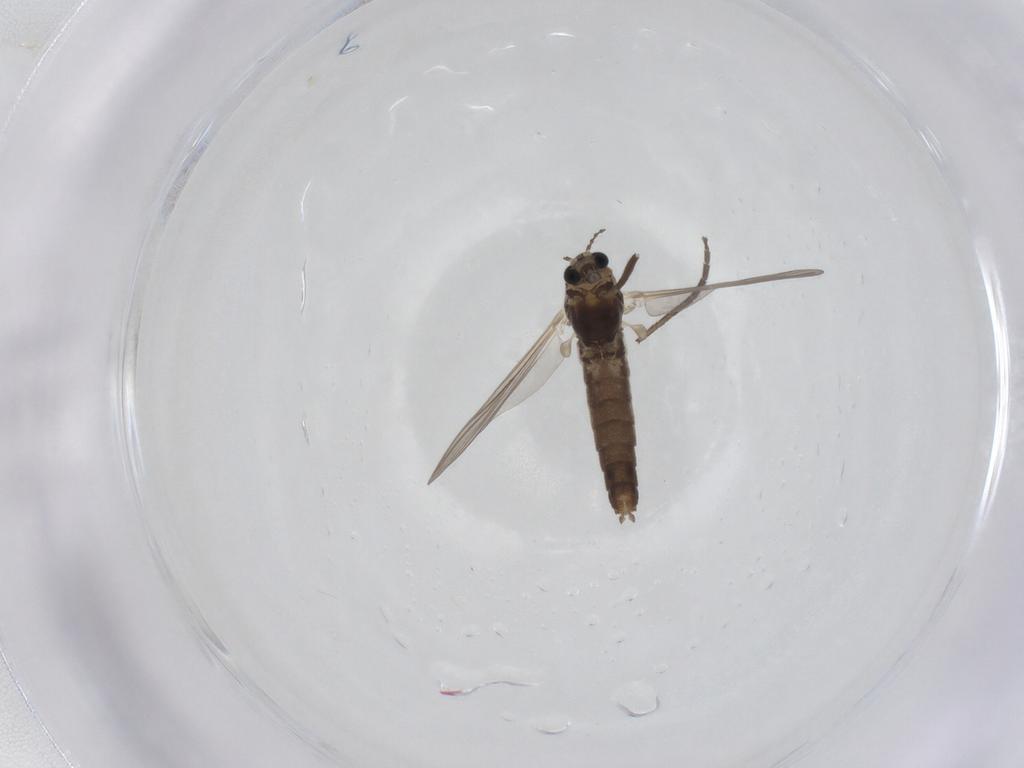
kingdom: Animalia
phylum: Arthropoda
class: Insecta
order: Diptera
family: Chironomidae
